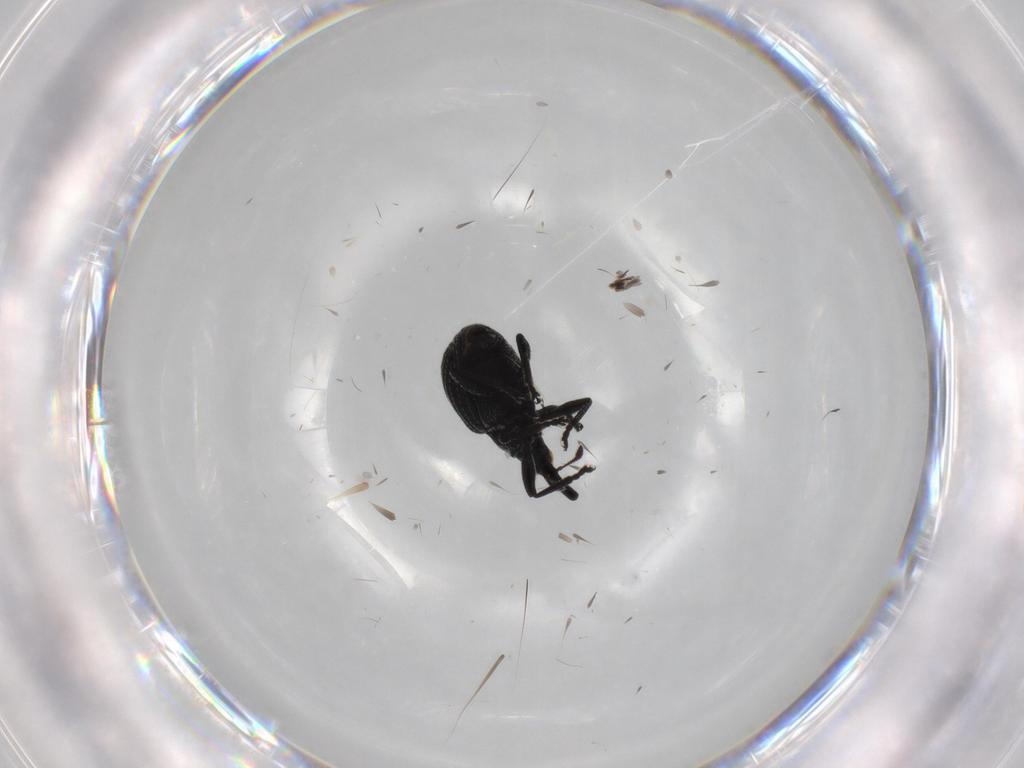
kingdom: Animalia
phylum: Arthropoda
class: Insecta
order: Coleoptera
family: Brentidae
